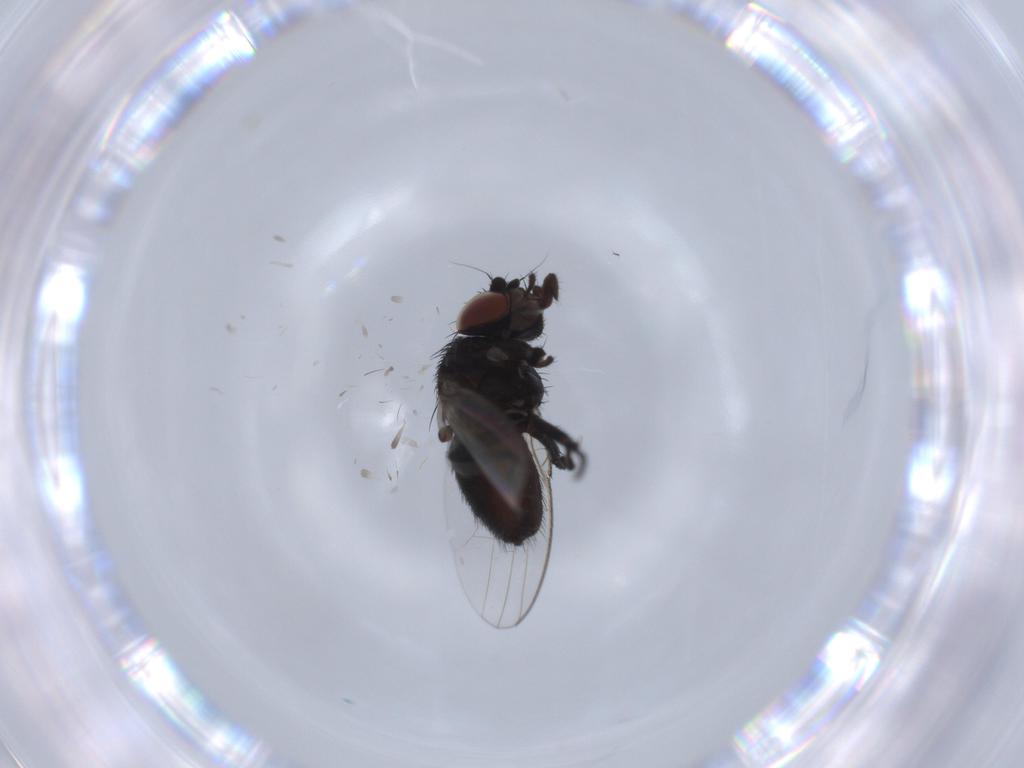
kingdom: Animalia
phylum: Arthropoda
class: Insecta
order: Diptera
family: Milichiidae
